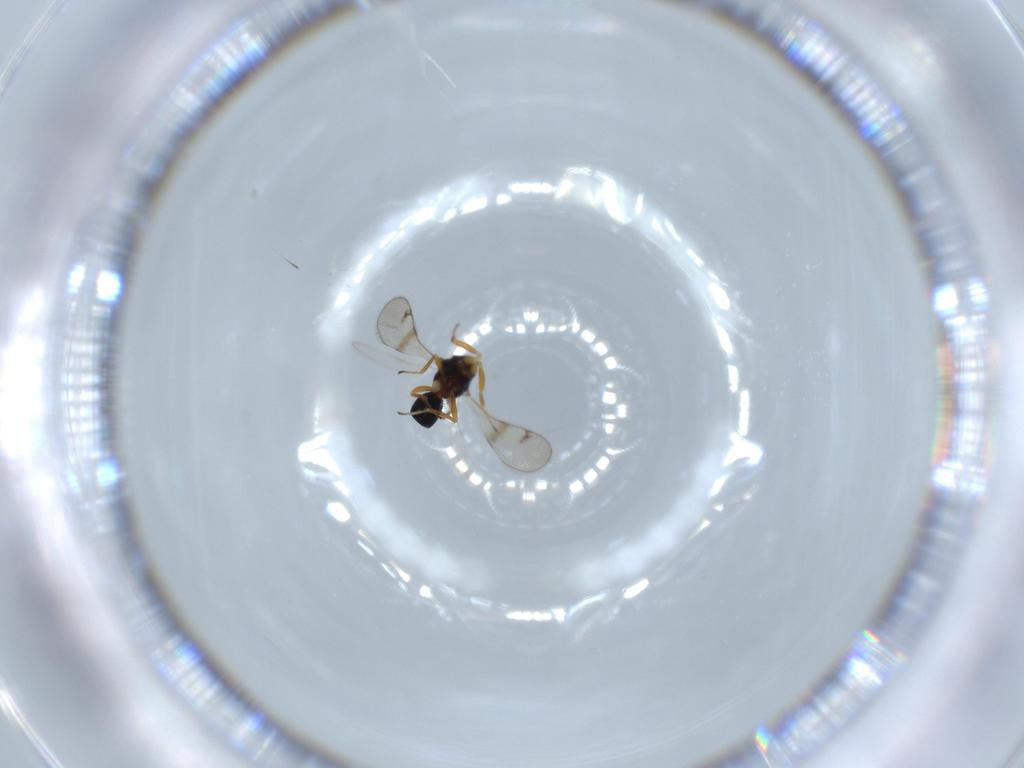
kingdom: Animalia
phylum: Arthropoda
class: Insecta
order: Hymenoptera
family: Diparidae
